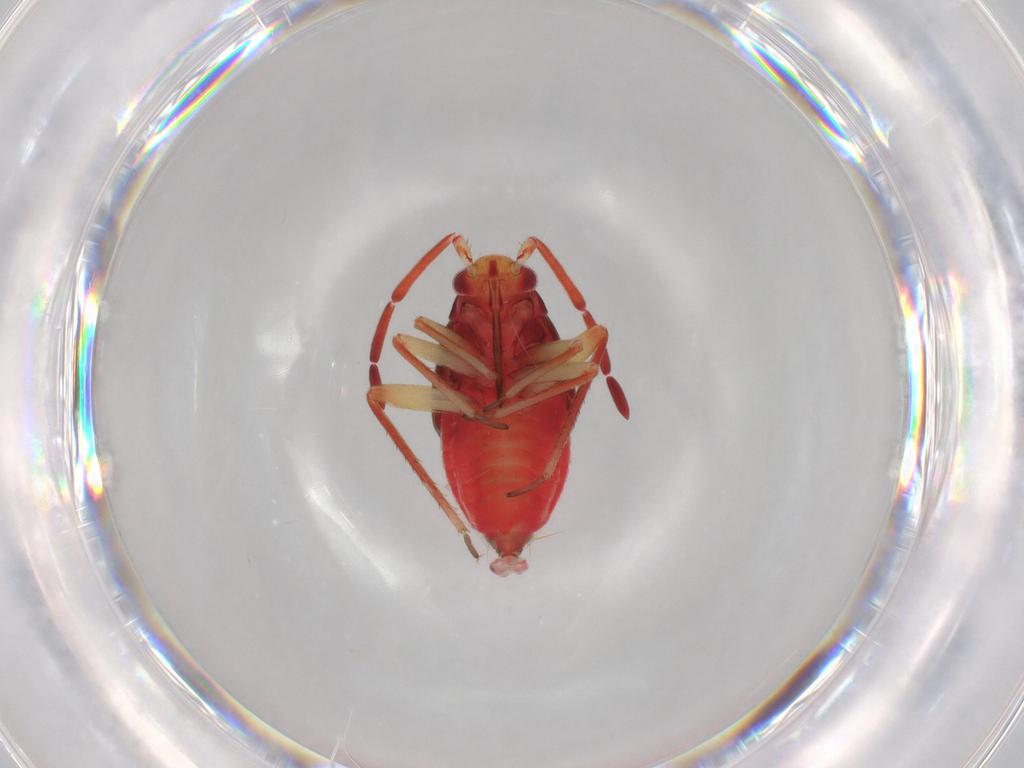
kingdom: Animalia
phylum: Arthropoda
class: Insecta
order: Hemiptera
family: Miridae
